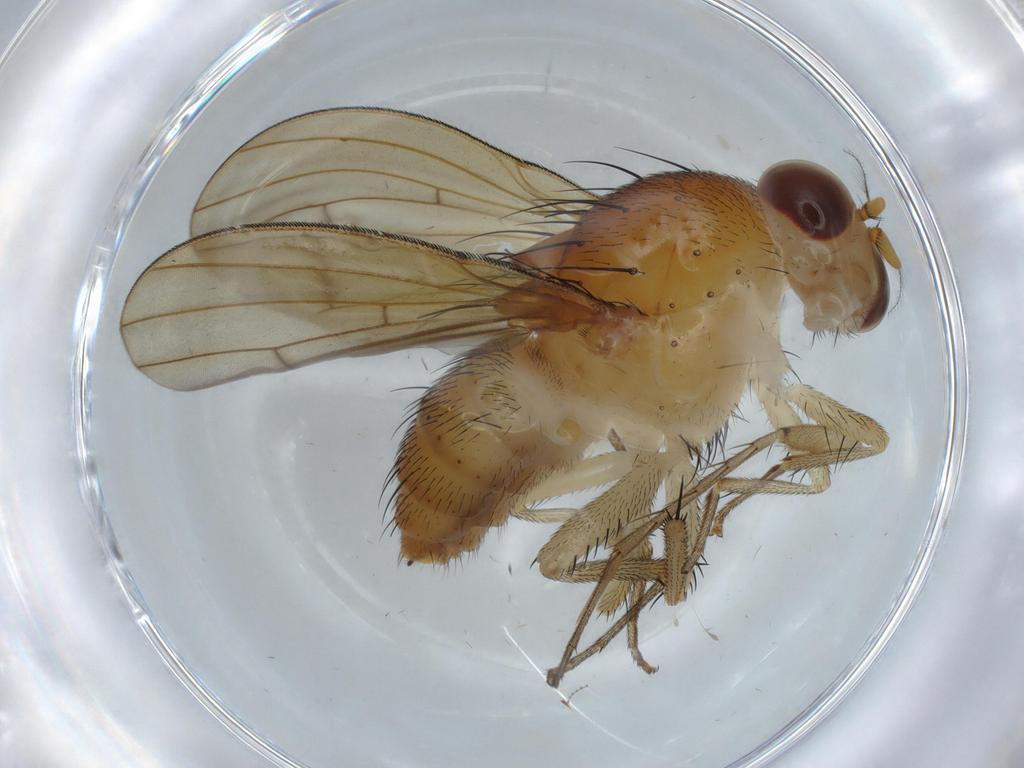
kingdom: Animalia
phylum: Arthropoda
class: Insecta
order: Diptera
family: Lauxaniidae
